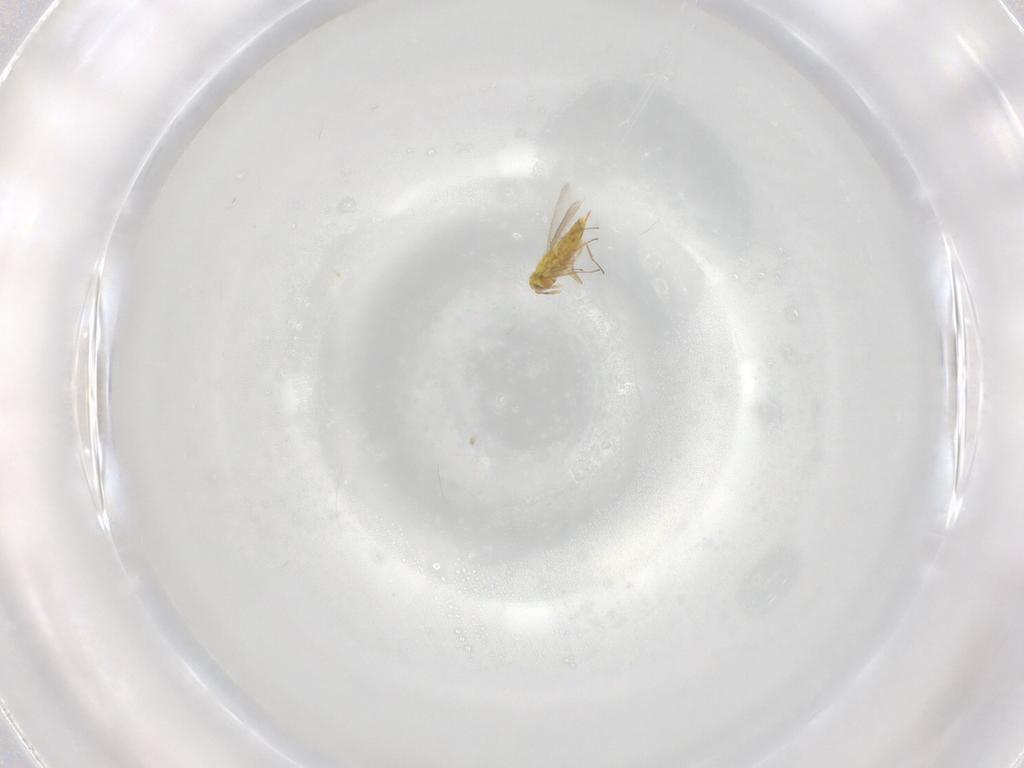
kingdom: Animalia
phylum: Arthropoda
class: Insecta
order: Hymenoptera
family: Aphelinidae
